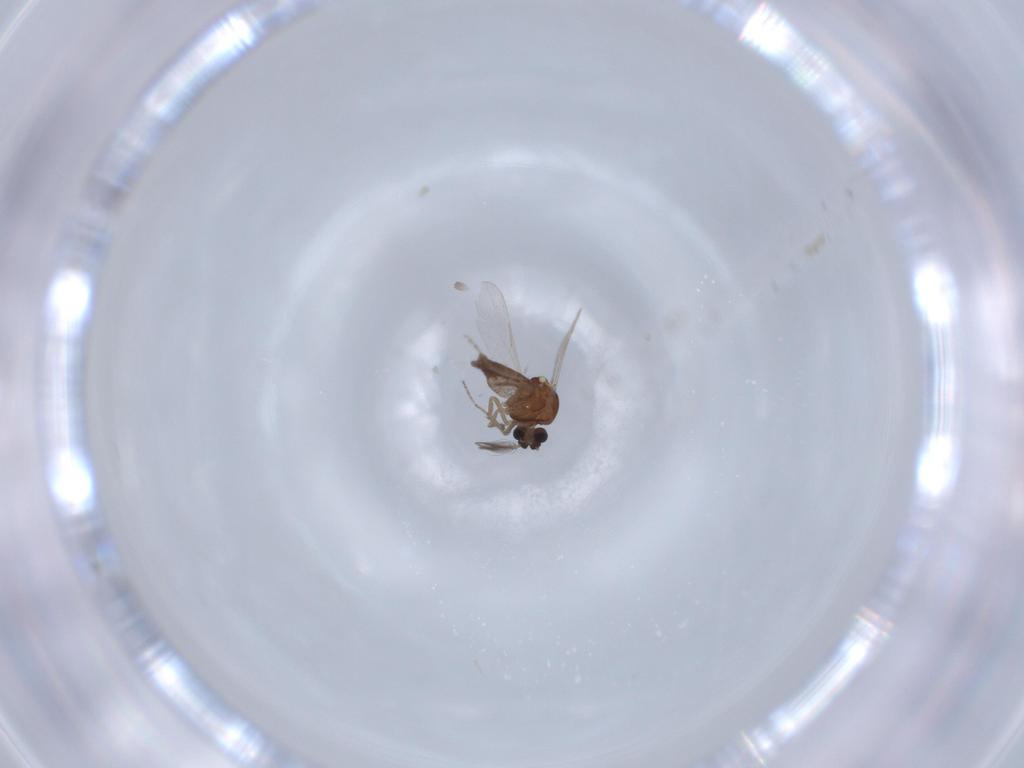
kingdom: Animalia
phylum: Arthropoda
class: Insecta
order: Diptera
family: Ceratopogonidae
